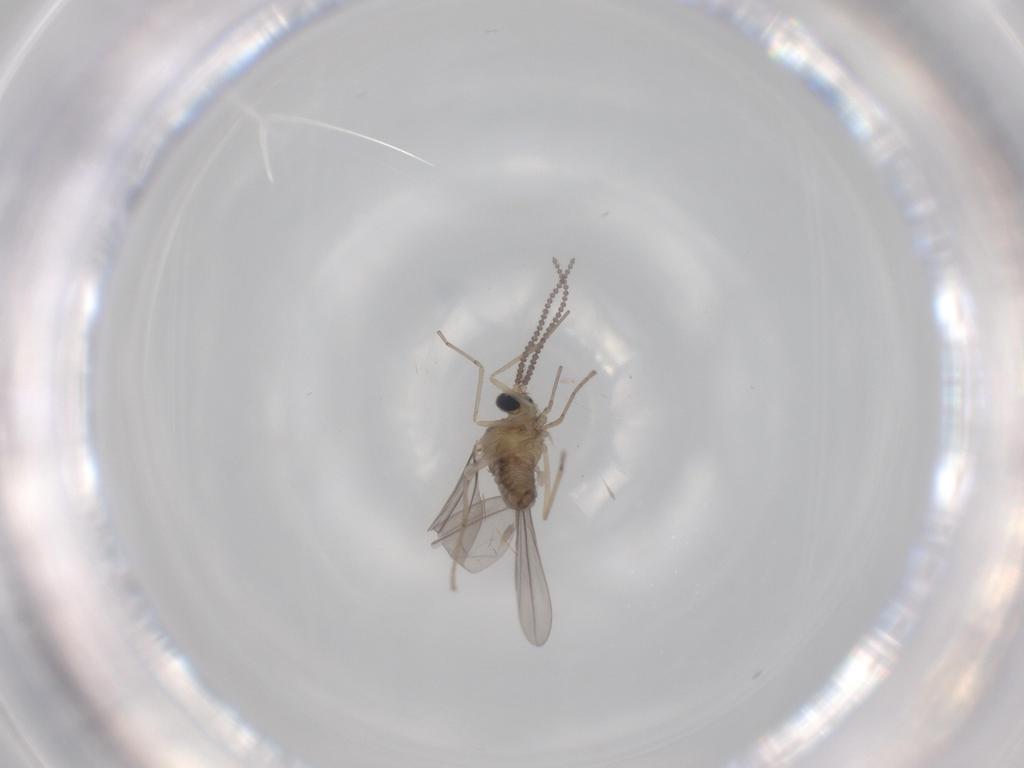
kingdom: Animalia
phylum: Arthropoda
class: Insecta
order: Diptera
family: Cecidomyiidae
